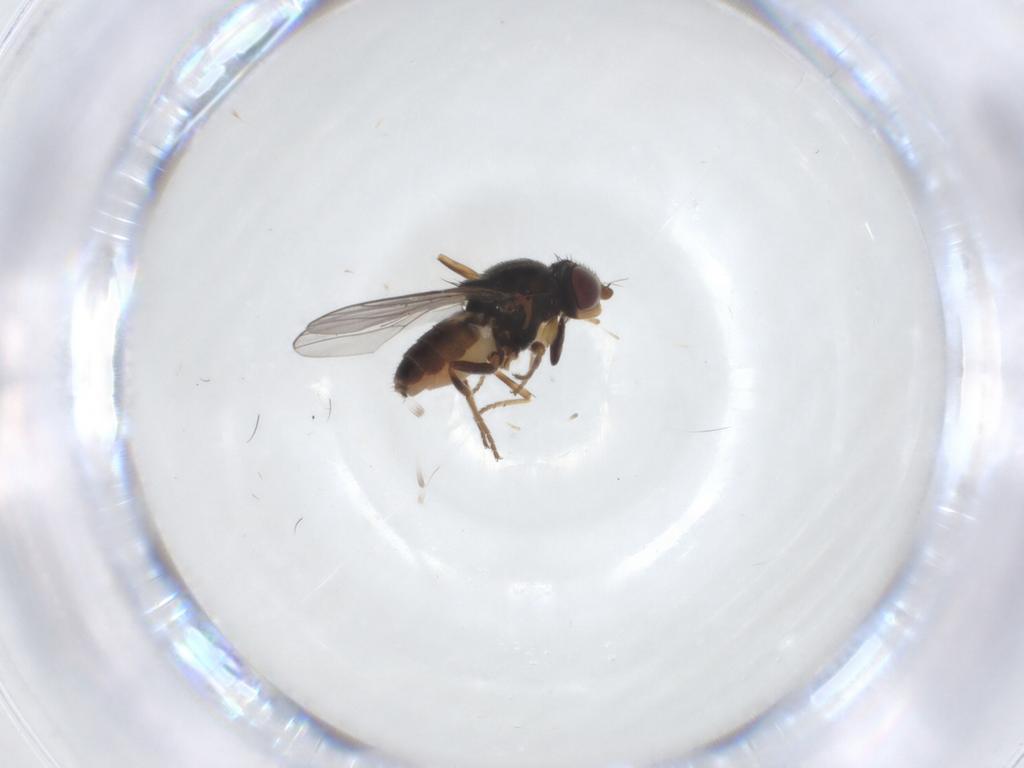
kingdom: Animalia
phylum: Arthropoda
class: Insecta
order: Diptera
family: Chloropidae
